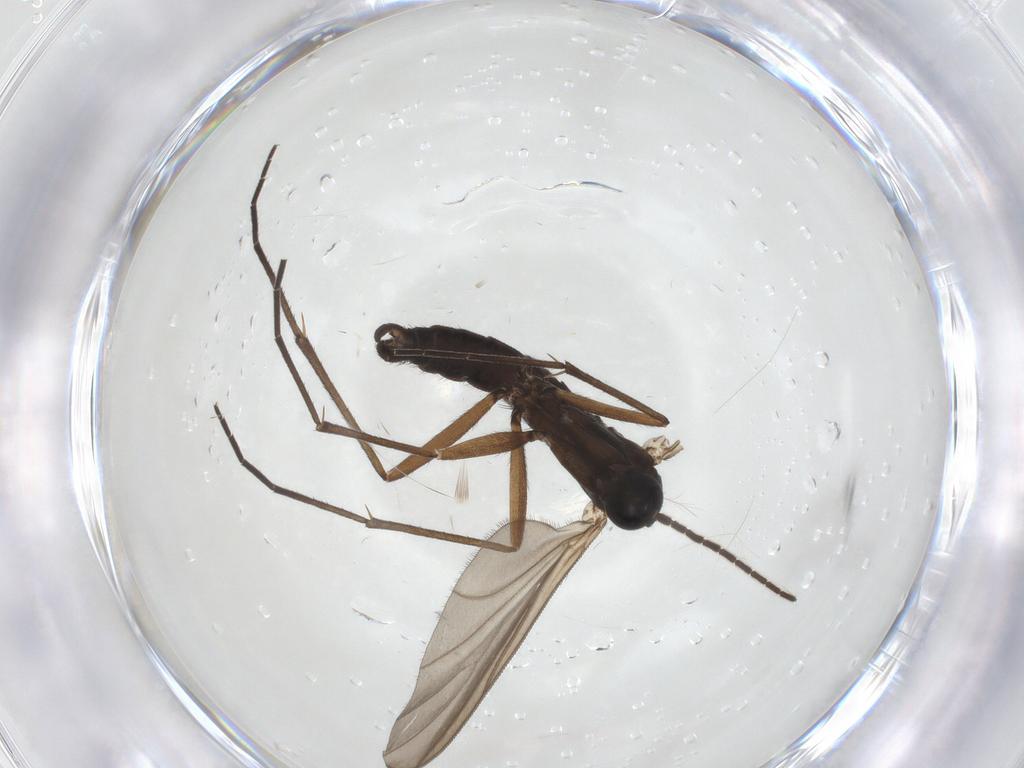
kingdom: Animalia
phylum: Arthropoda
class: Insecta
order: Diptera
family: Sciaridae
